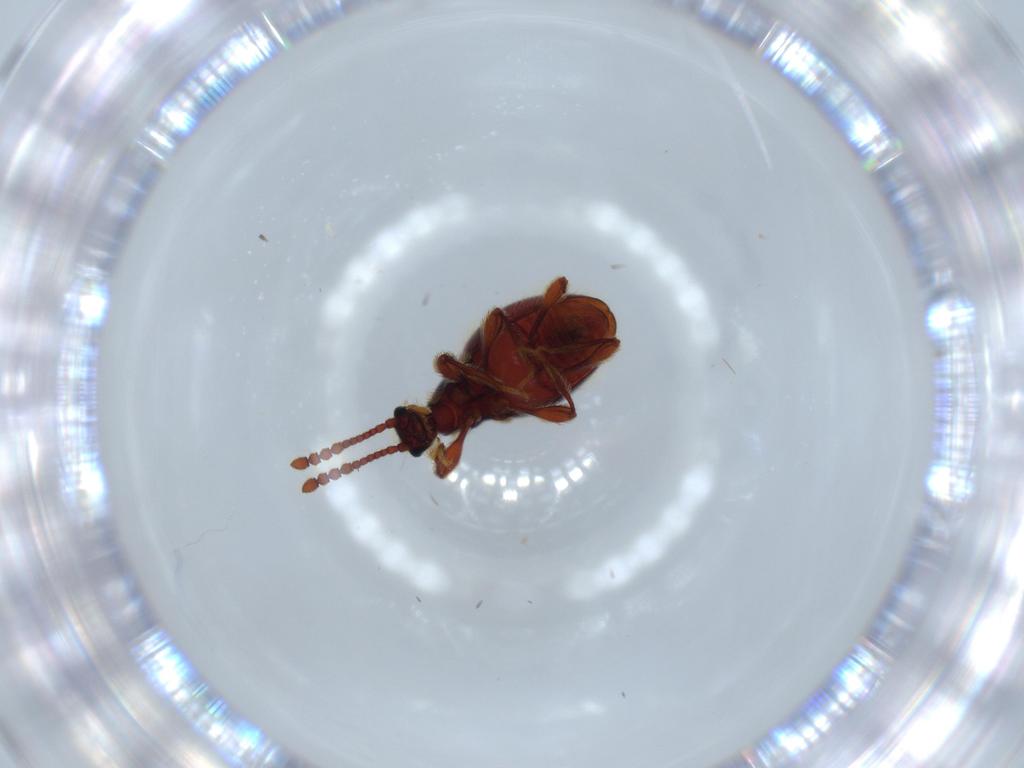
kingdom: Animalia
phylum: Arthropoda
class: Insecta
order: Coleoptera
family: Staphylinidae
